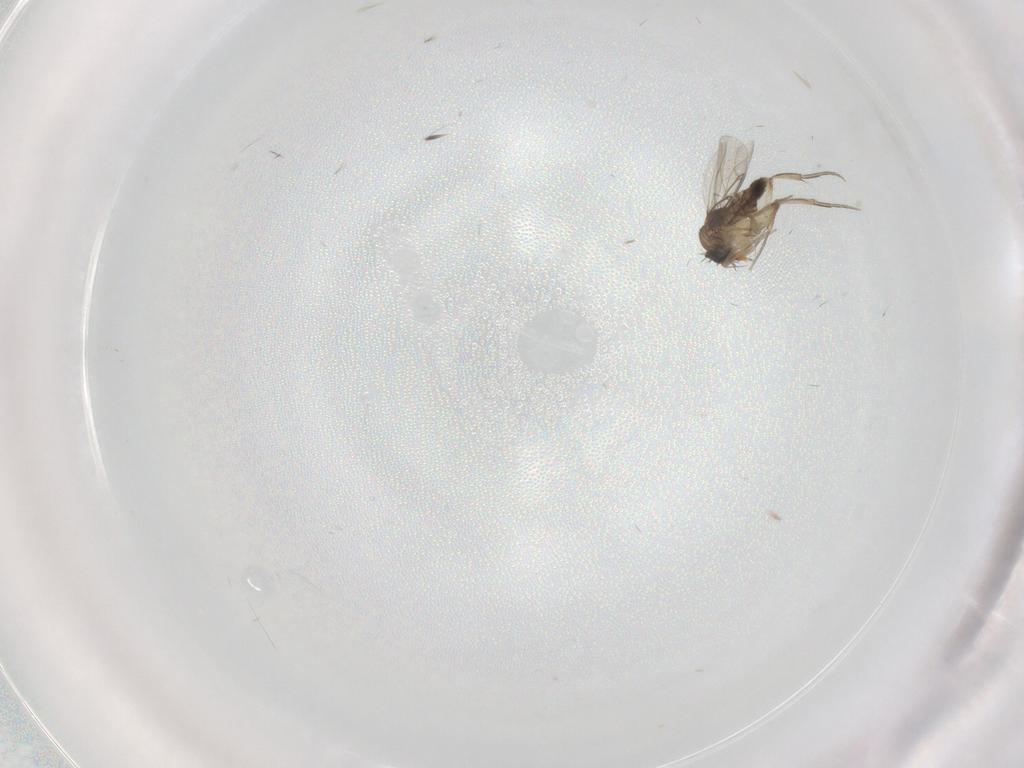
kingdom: Animalia
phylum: Arthropoda
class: Insecta
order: Diptera
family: Phoridae
